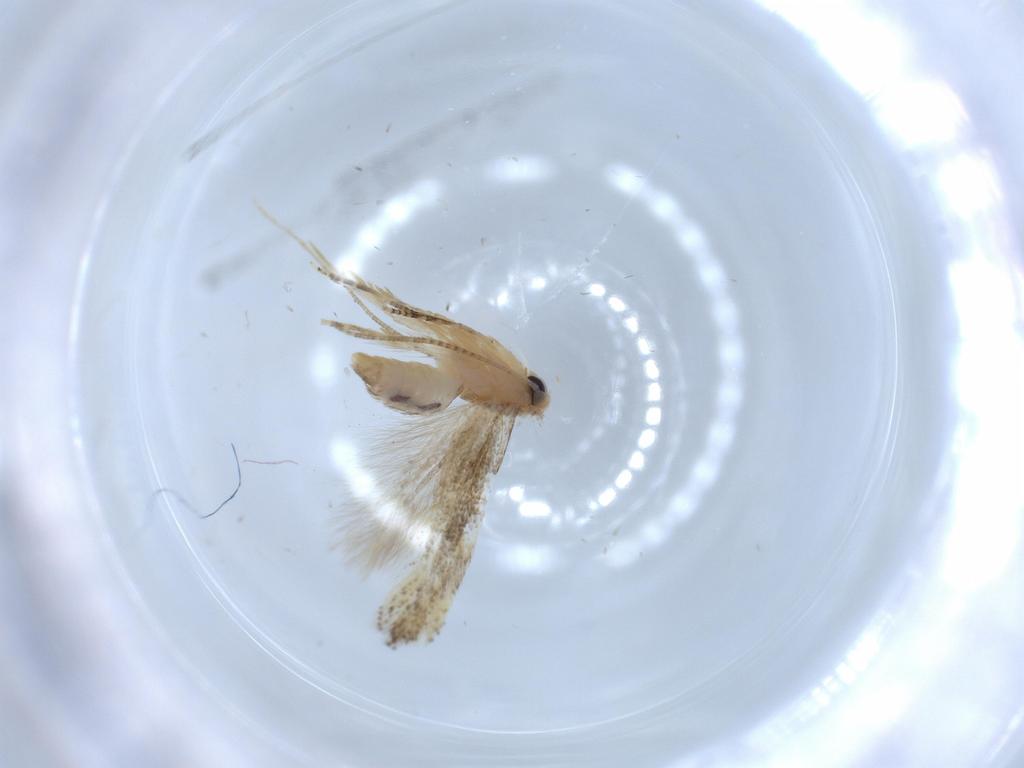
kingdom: Animalia
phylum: Arthropoda
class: Insecta
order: Lepidoptera
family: Bucculatricidae
